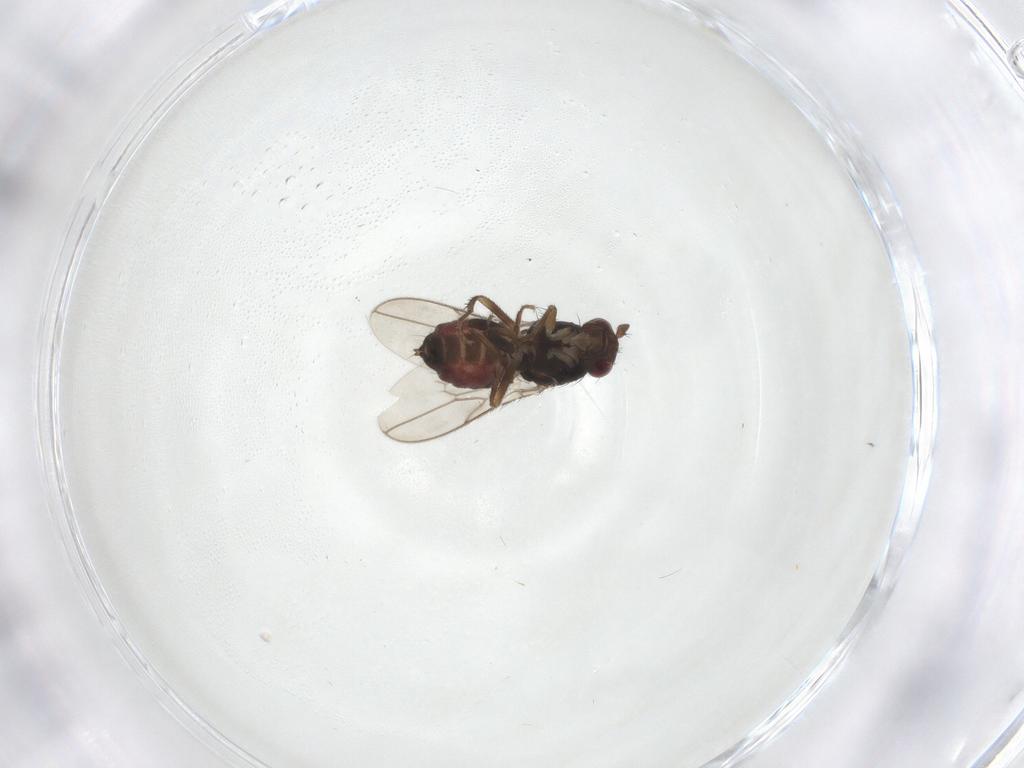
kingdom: Animalia
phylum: Arthropoda
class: Insecta
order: Diptera
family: Sphaeroceridae
